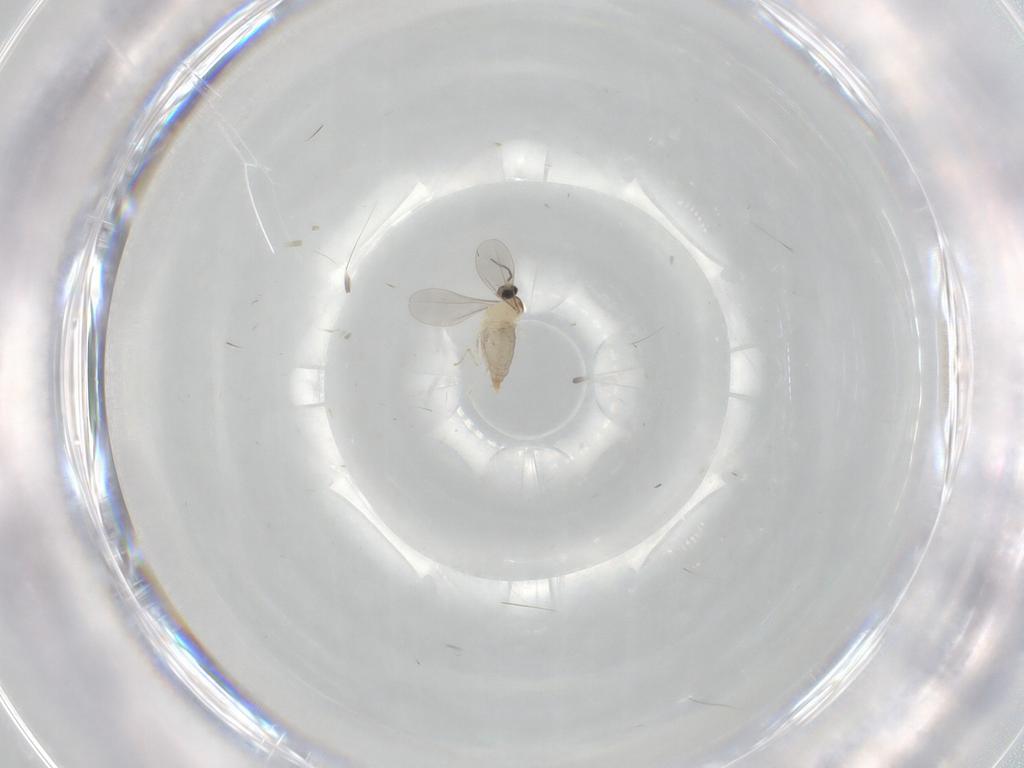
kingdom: Animalia
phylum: Arthropoda
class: Insecta
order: Diptera
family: Cecidomyiidae
